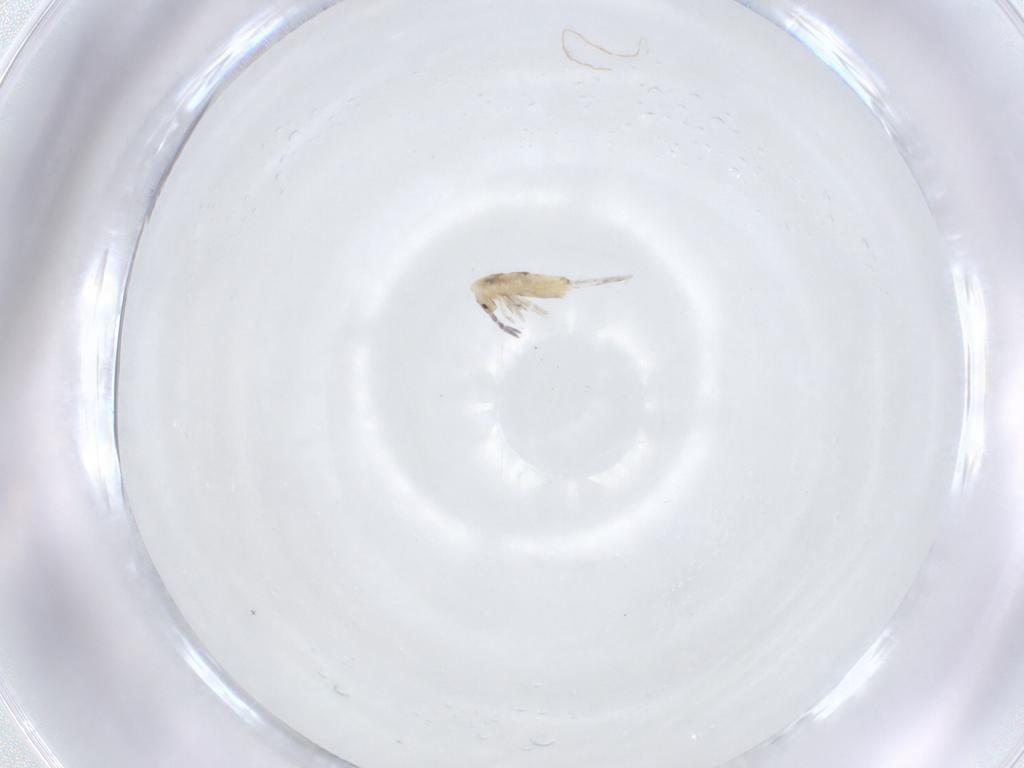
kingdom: Animalia
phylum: Arthropoda
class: Collembola
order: Entomobryomorpha
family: Entomobryidae
